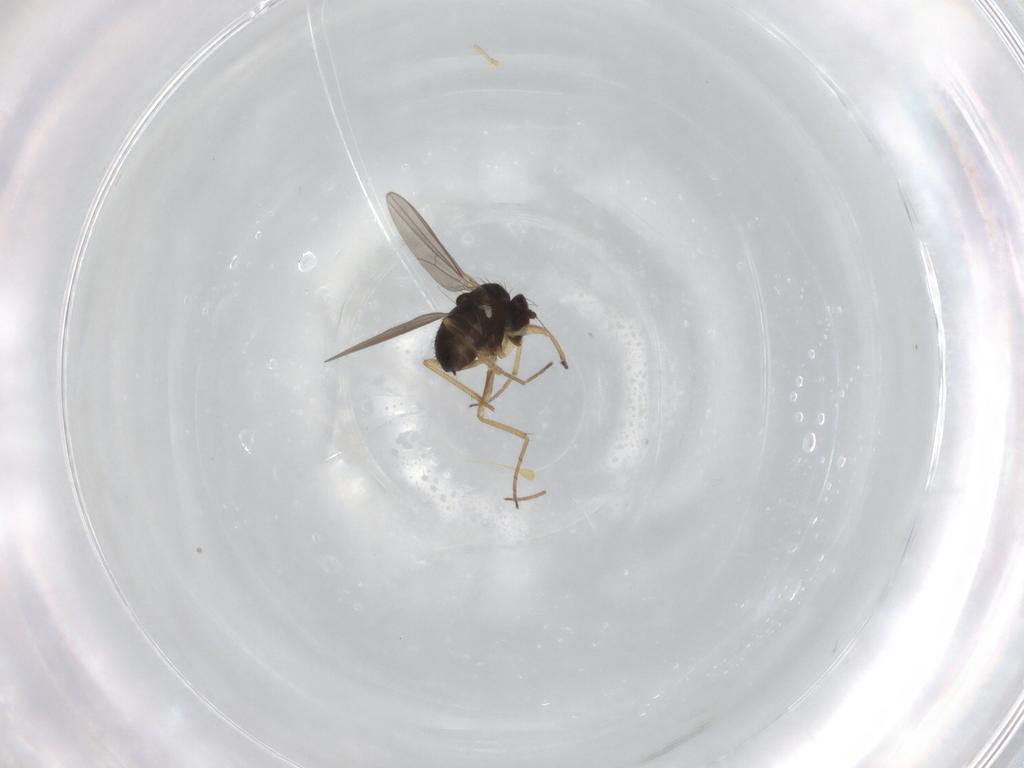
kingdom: Animalia
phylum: Arthropoda
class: Insecta
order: Diptera
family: Dolichopodidae
